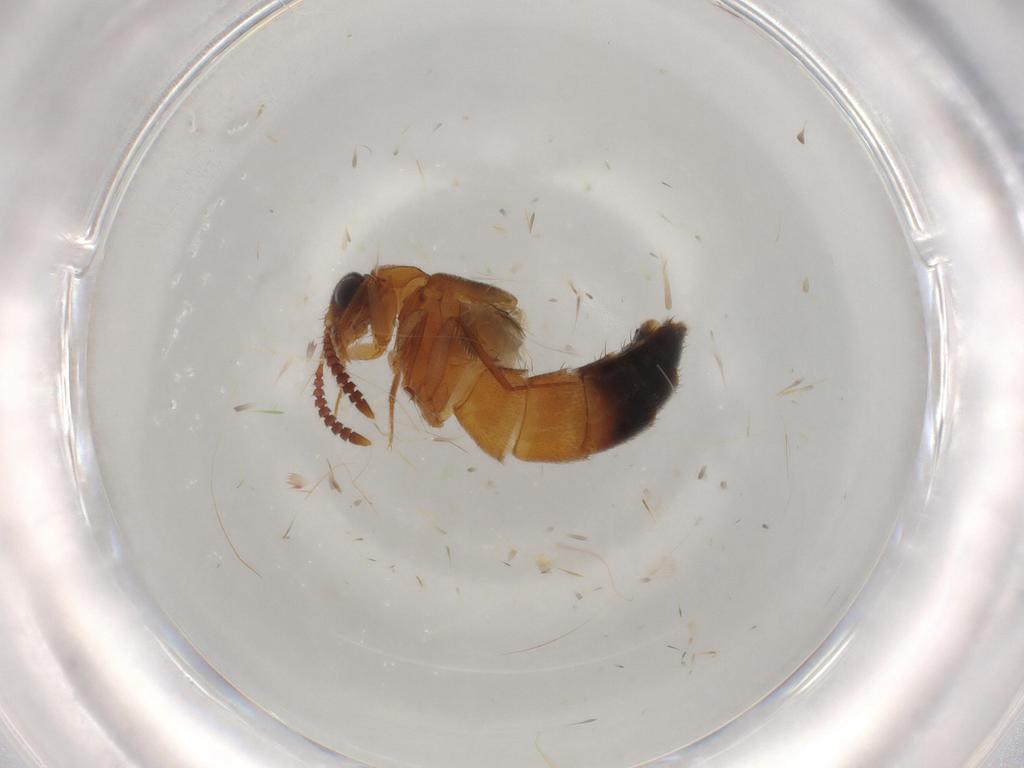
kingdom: Animalia
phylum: Arthropoda
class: Insecta
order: Coleoptera
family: Staphylinidae
